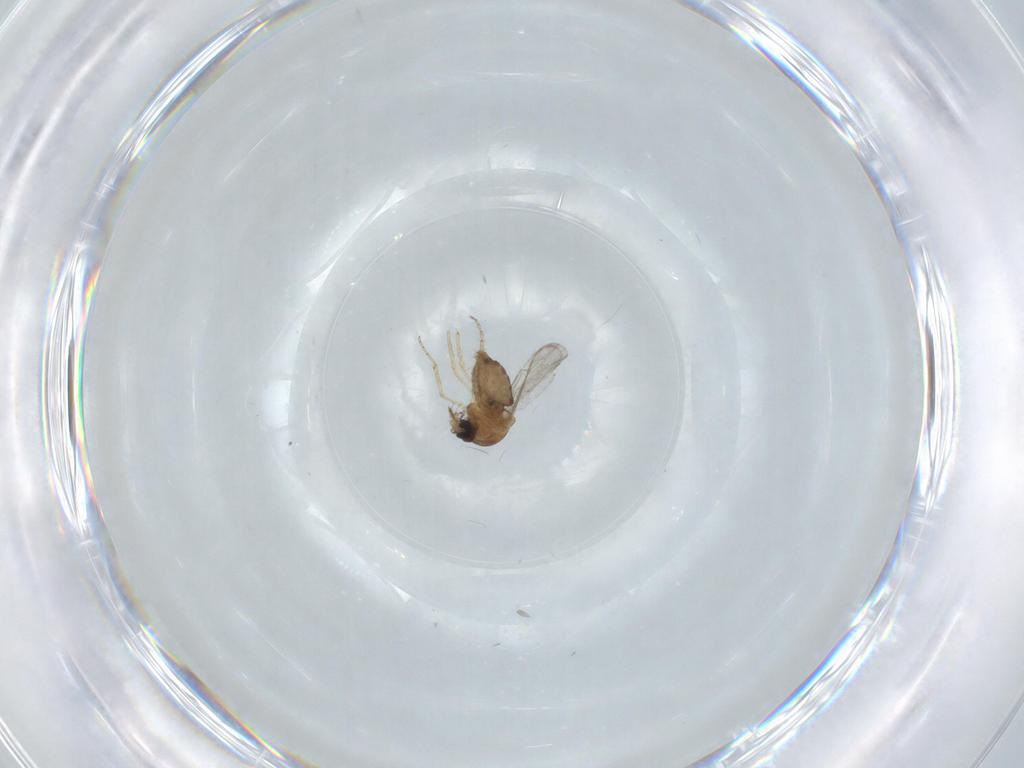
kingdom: Animalia
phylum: Arthropoda
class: Insecta
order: Diptera
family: Ceratopogonidae
